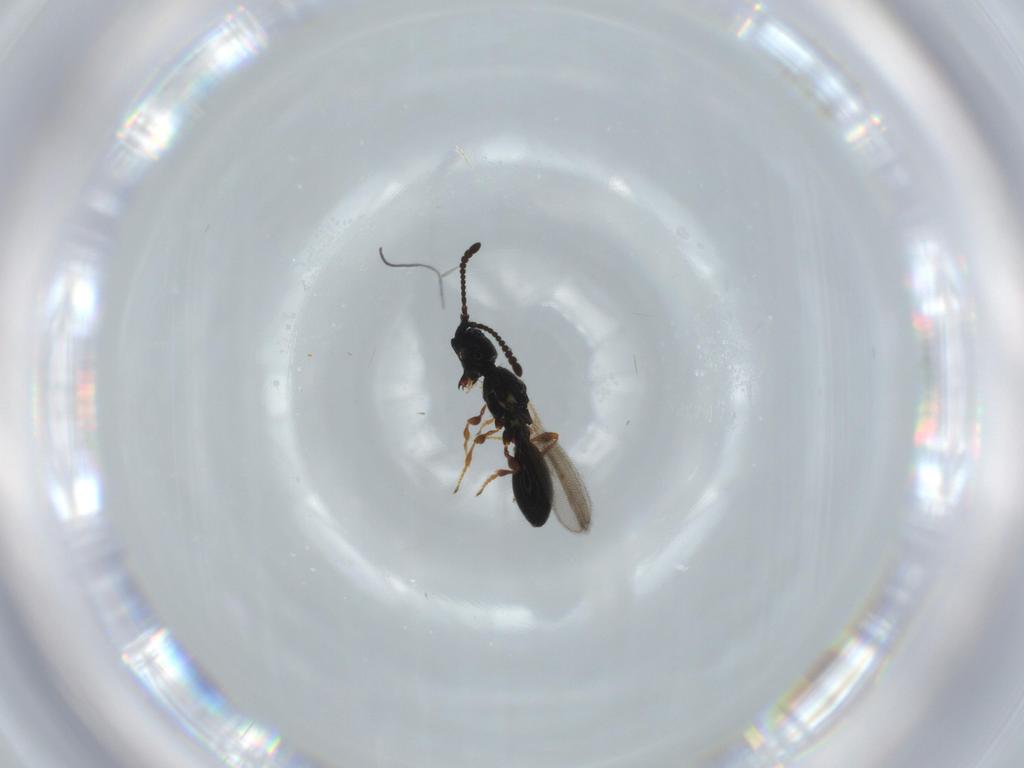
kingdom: Animalia
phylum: Arthropoda
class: Insecta
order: Hymenoptera
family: Diapriidae
